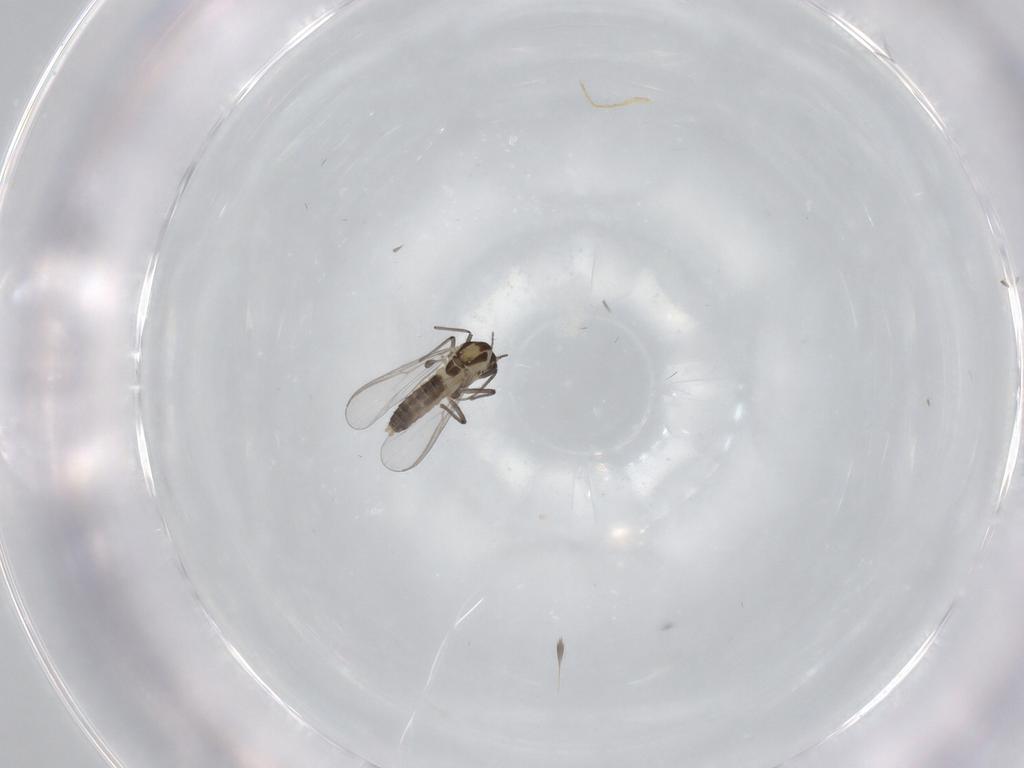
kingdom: Animalia
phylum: Arthropoda
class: Insecta
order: Diptera
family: Chironomidae
